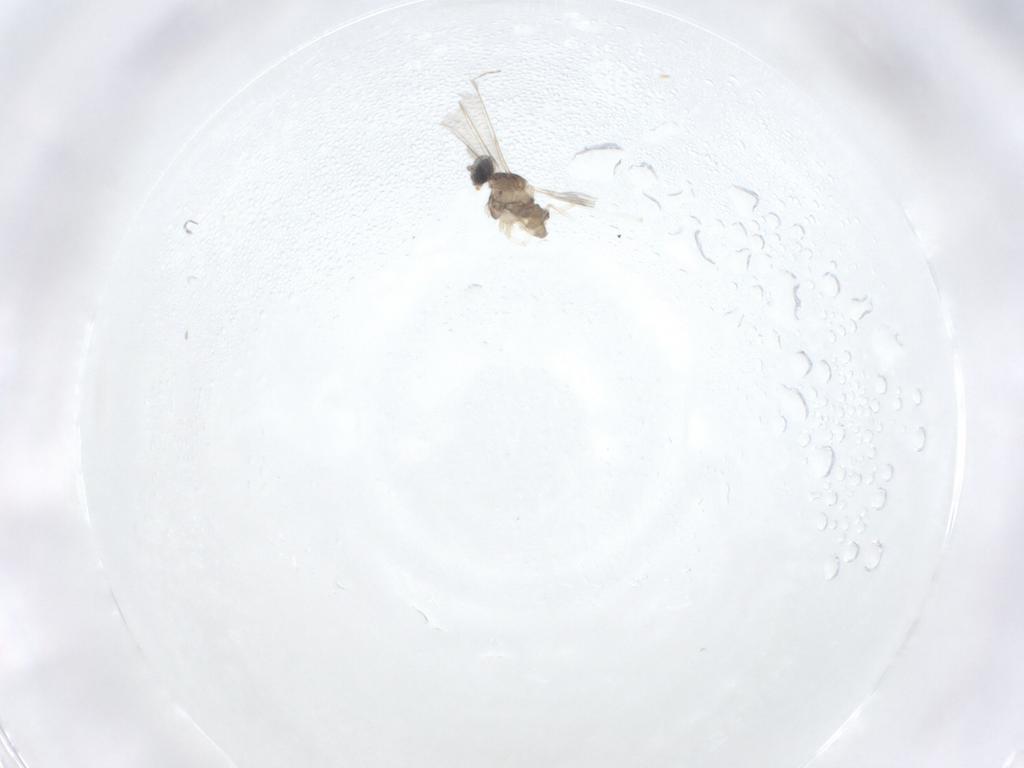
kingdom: Animalia
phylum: Arthropoda
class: Insecta
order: Diptera
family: Cecidomyiidae
